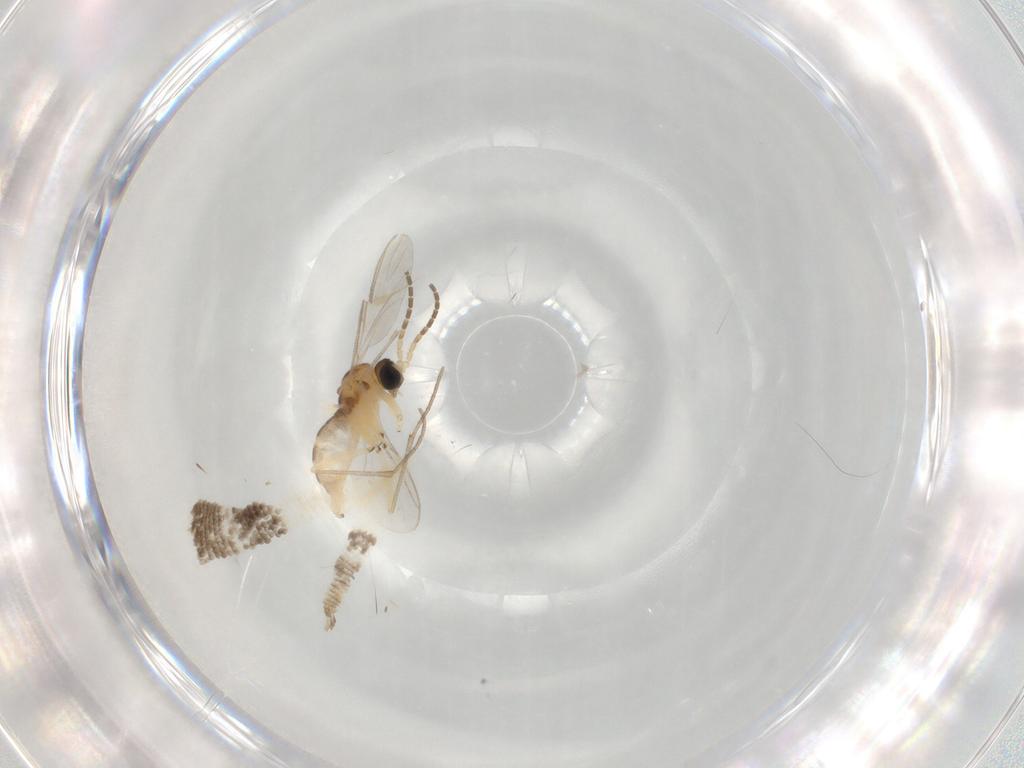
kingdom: Animalia
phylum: Arthropoda
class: Insecta
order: Diptera
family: Sciaridae
